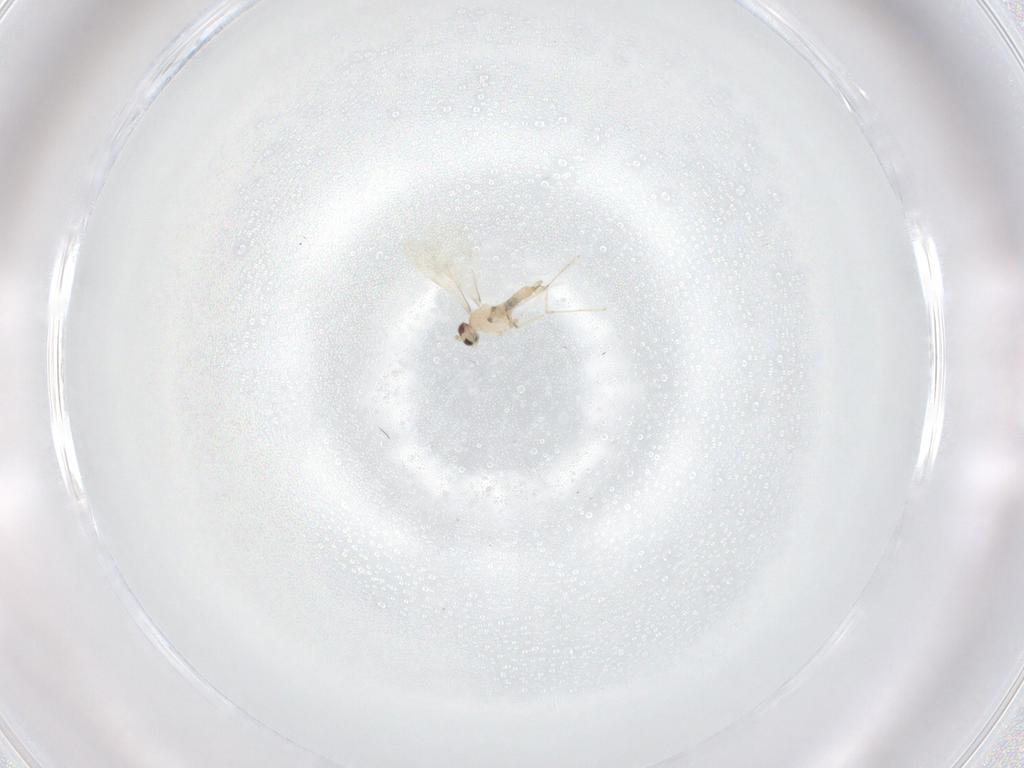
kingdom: Animalia
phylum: Arthropoda
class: Insecta
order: Diptera
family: Cecidomyiidae
